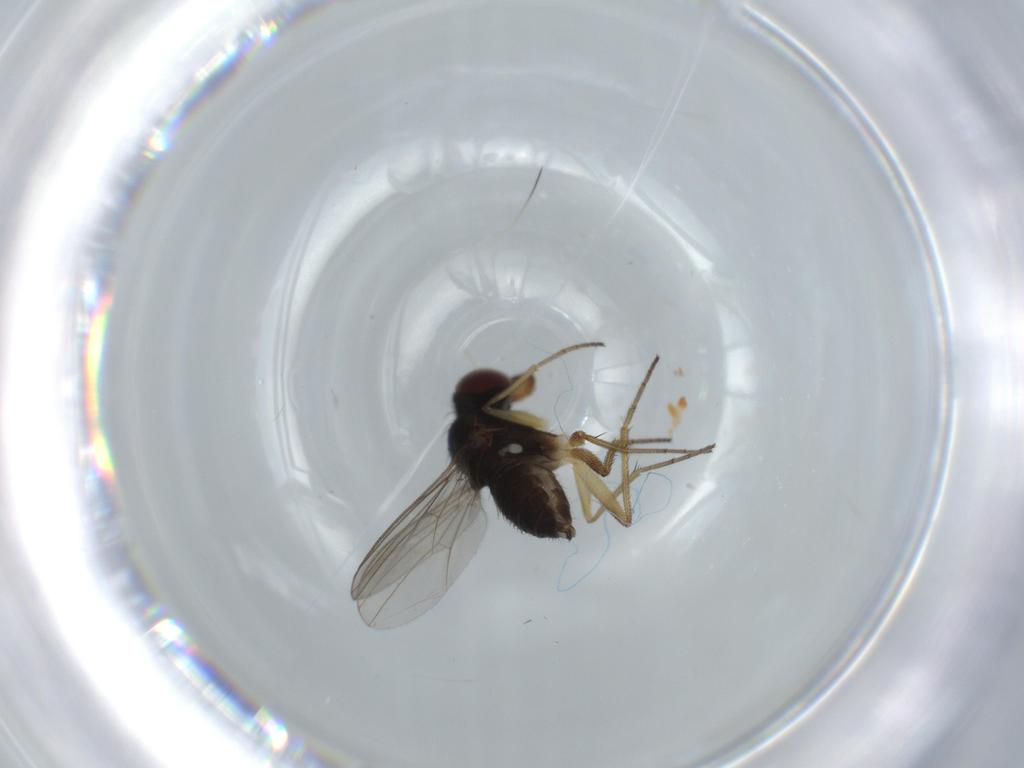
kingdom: Animalia
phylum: Arthropoda
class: Insecta
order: Diptera
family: Dolichopodidae
